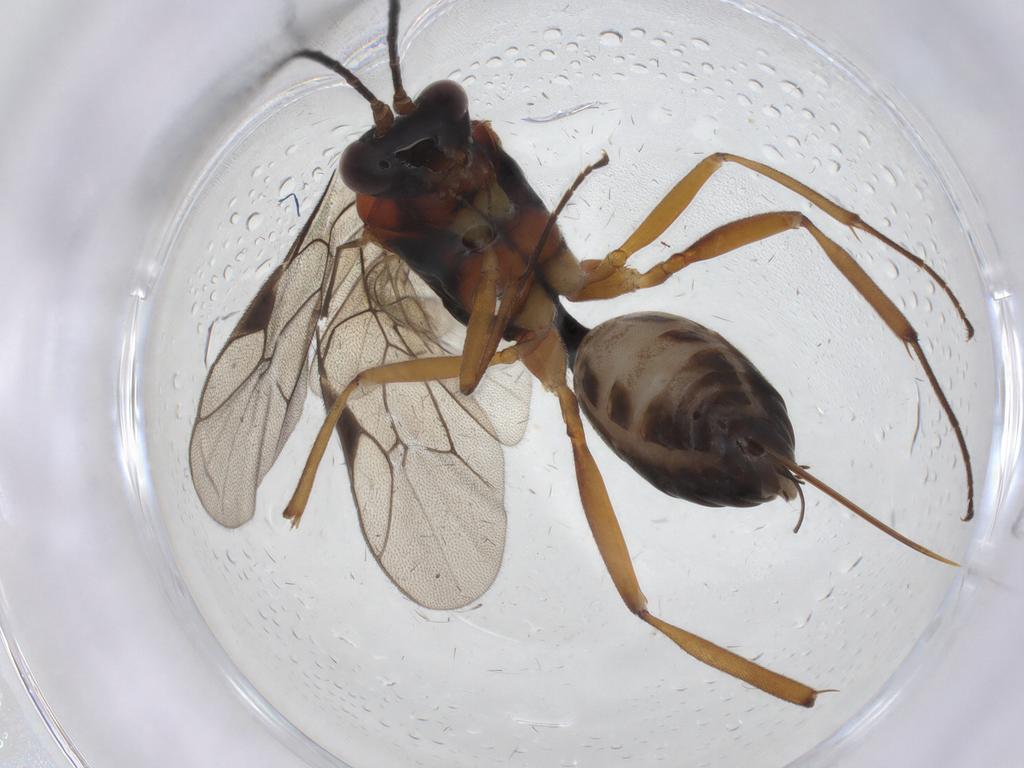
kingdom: Animalia
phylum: Arthropoda
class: Insecta
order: Hymenoptera
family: Ichneumonidae
